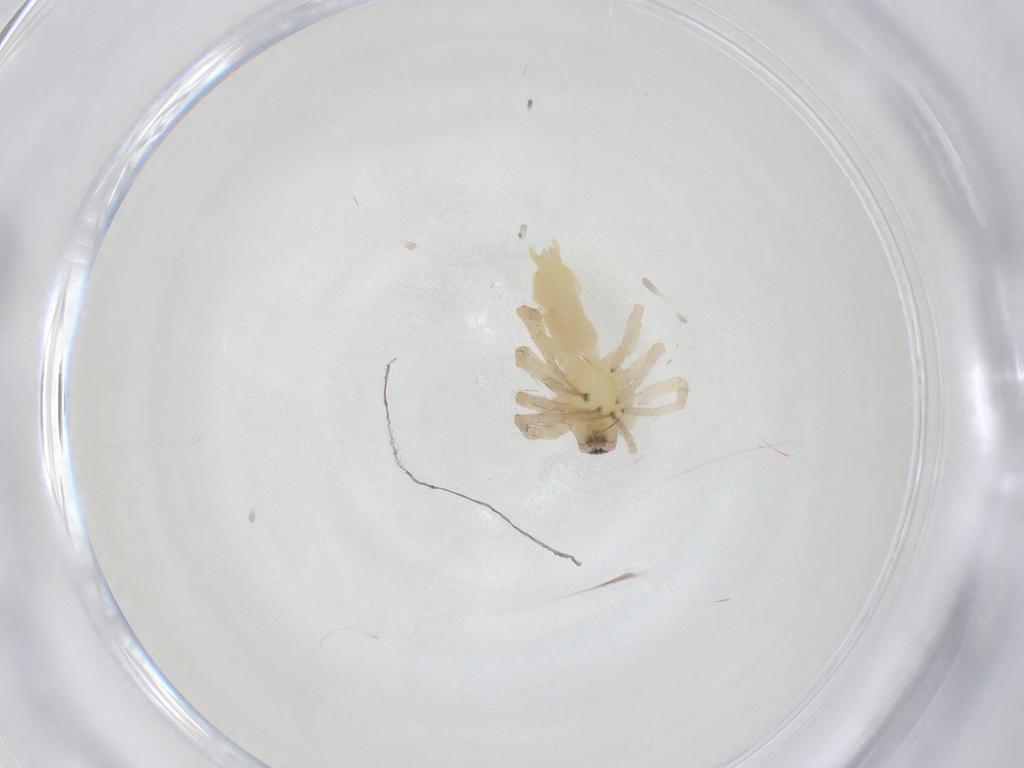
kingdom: Animalia
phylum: Arthropoda
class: Arachnida
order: Araneae
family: Anyphaenidae
